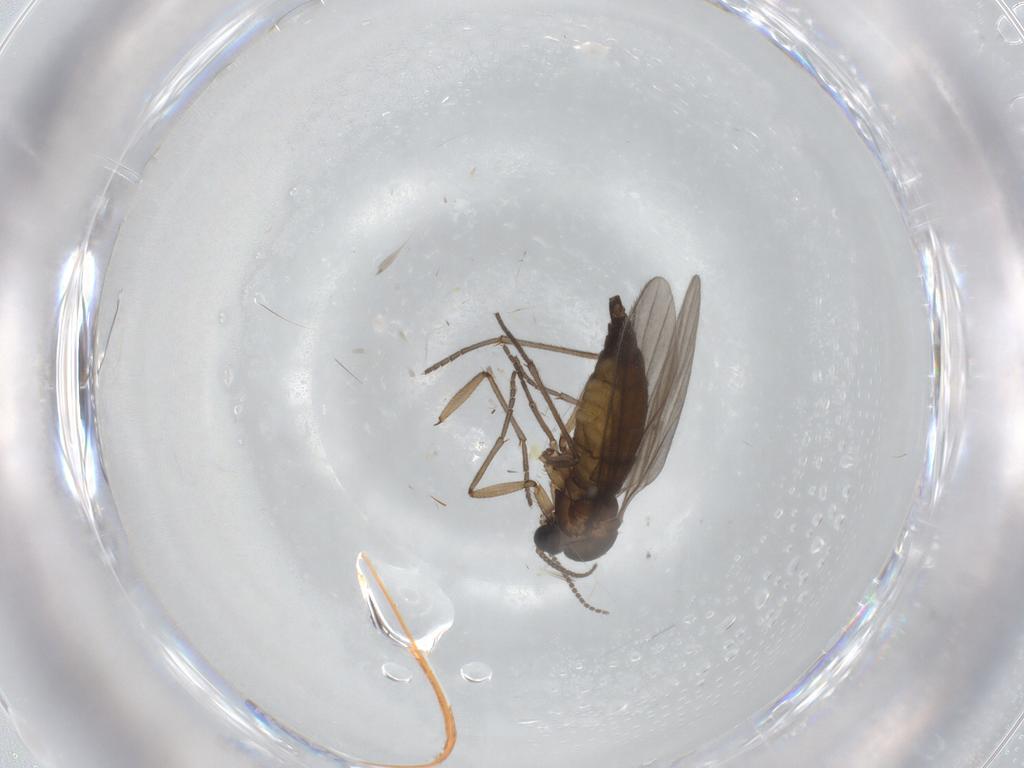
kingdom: Animalia
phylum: Arthropoda
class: Insecta
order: Diptera
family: Sciaridae
